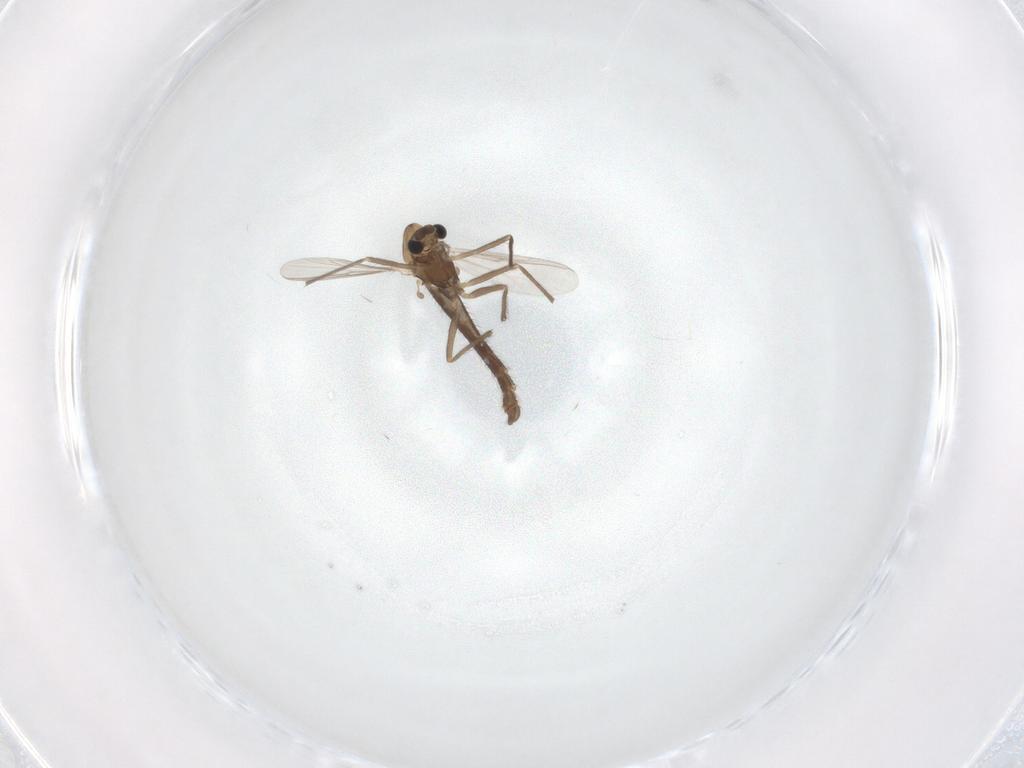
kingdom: Animalia
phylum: Arthropoda
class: Insecta
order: Diptera
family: Chironomidae
